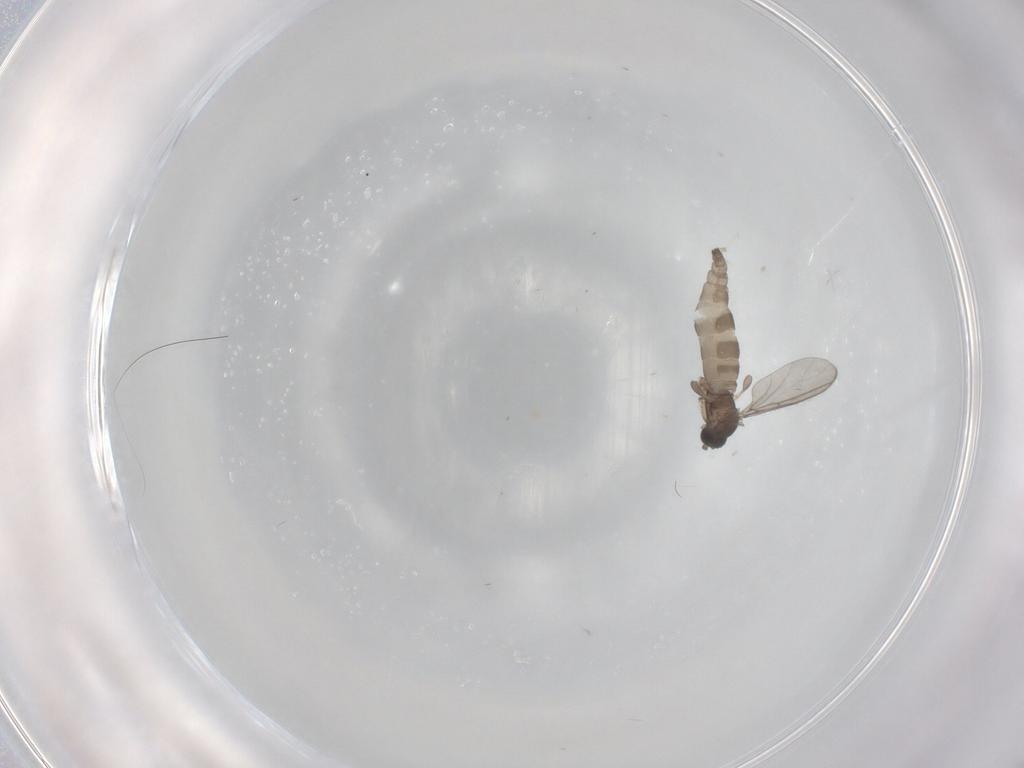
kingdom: Animalia
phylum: Arthropoda
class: Insecta
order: Diptera
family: Sciaridae
